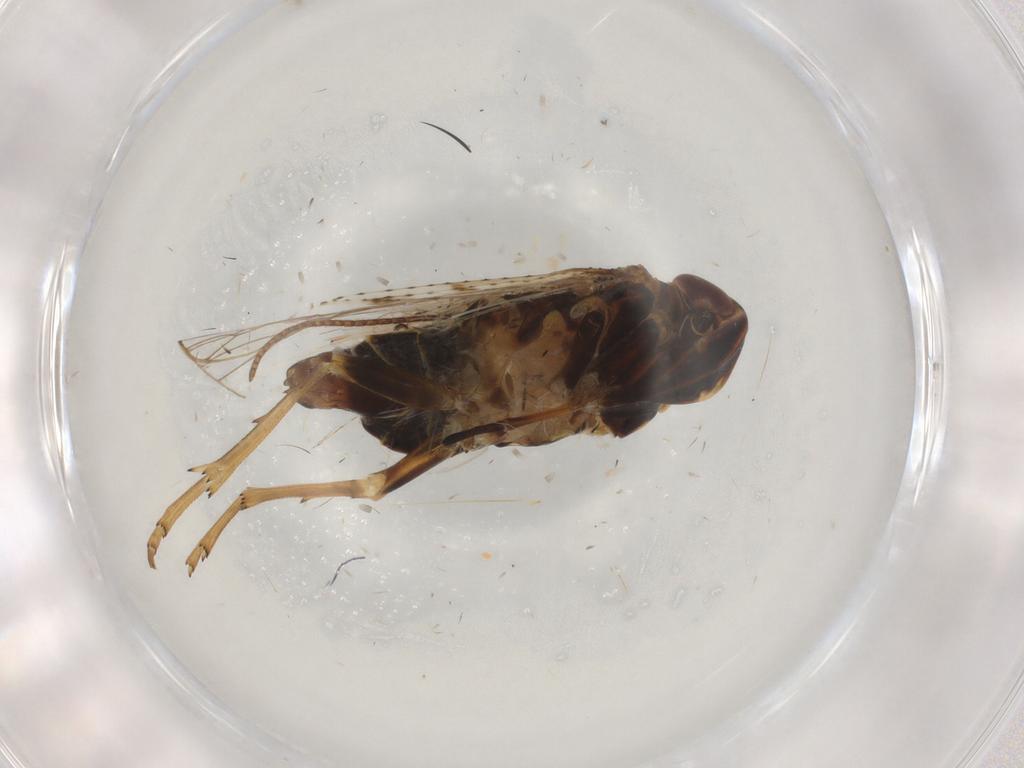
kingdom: Animalia
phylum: Arthropoda
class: Insecta
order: Hemiptera
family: Cixiidae
